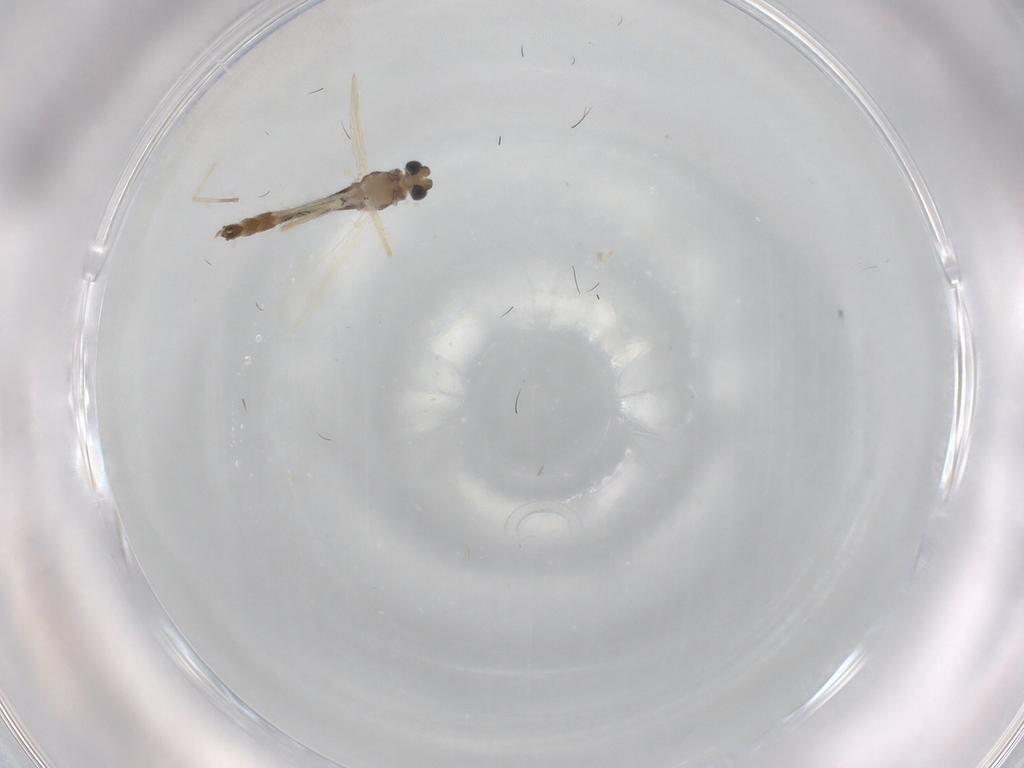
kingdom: Animalia
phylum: Arthropoda
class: Insecta
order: Diptera
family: Chironomidae
